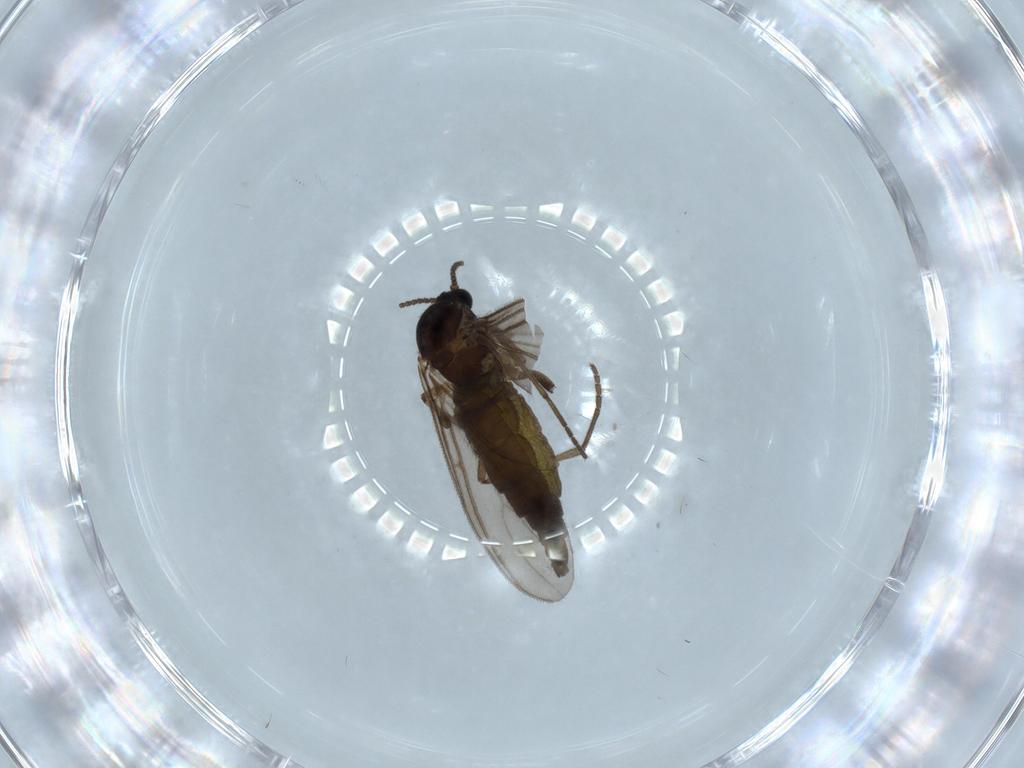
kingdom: Animalia
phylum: Arthropoda
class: Insecta
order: Diptera
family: Sciaridae
